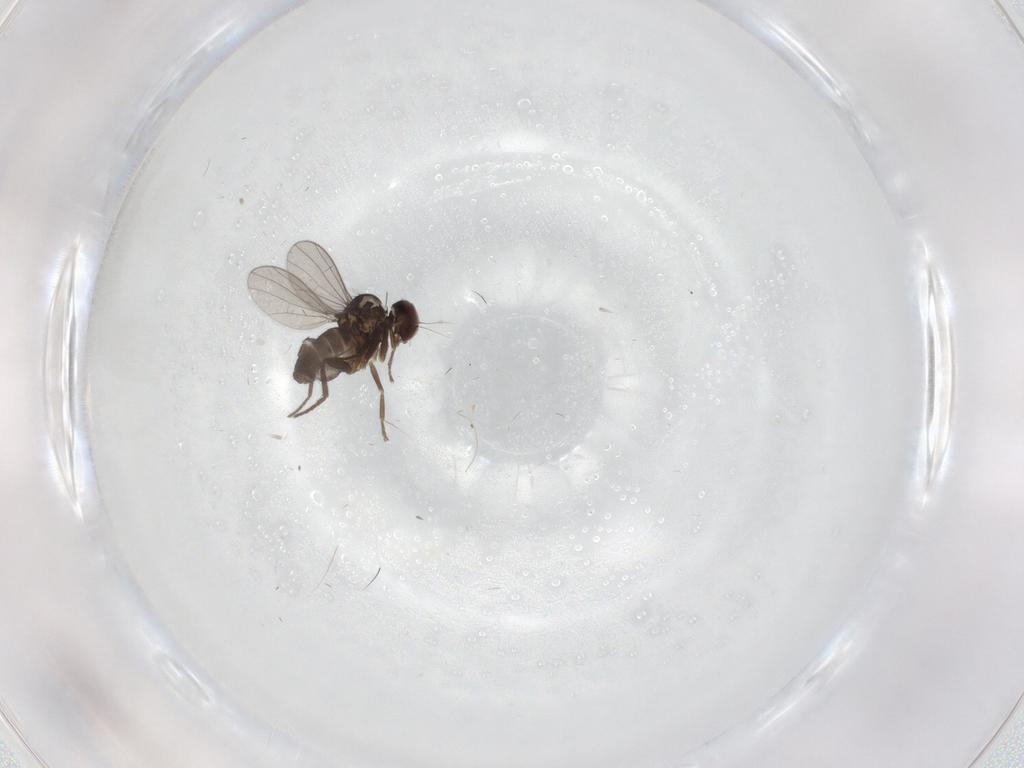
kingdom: Animalia
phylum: Arthropoda
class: Insecta
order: Diptera
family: Dolichopodidae
